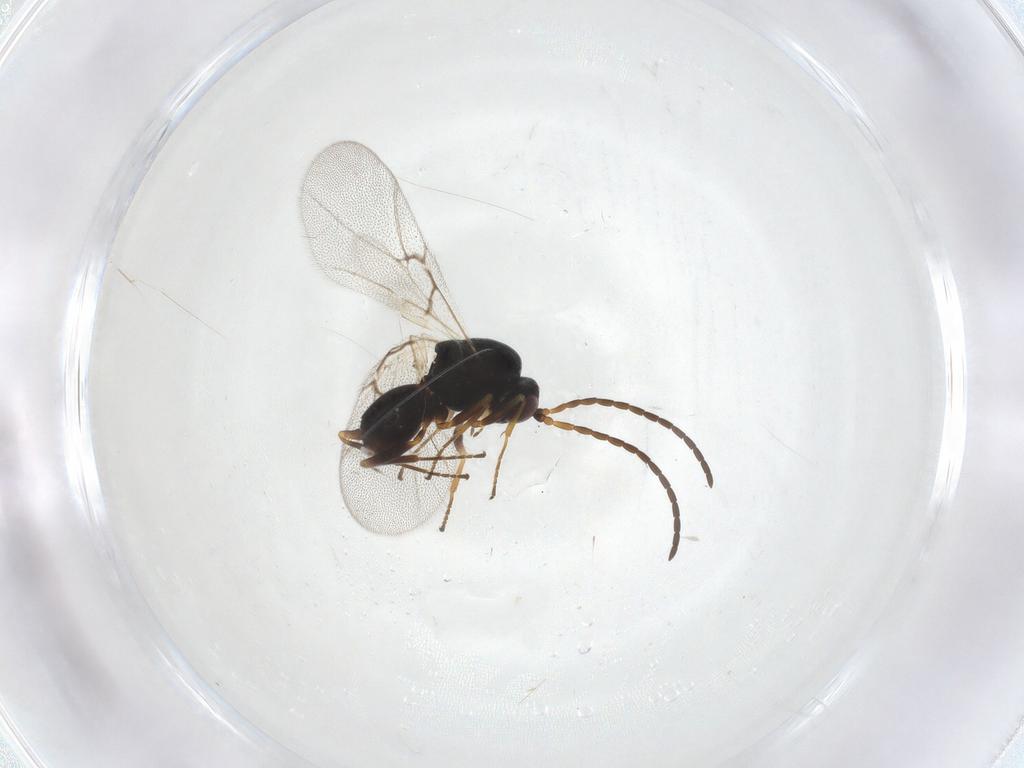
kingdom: Animalia
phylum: Arthropoda
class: Insecta
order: Hymenoptera
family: Cynipidae
